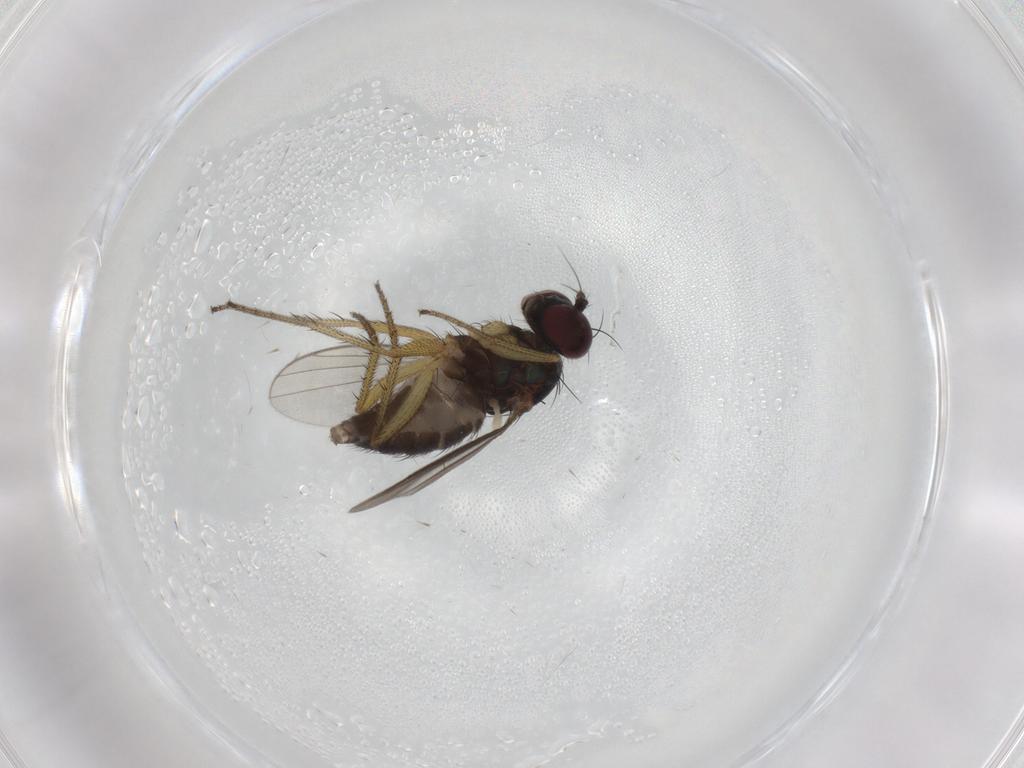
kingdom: Animalia
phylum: Arthropoda
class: Insecta
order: Diptera
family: Dolichopodidae
